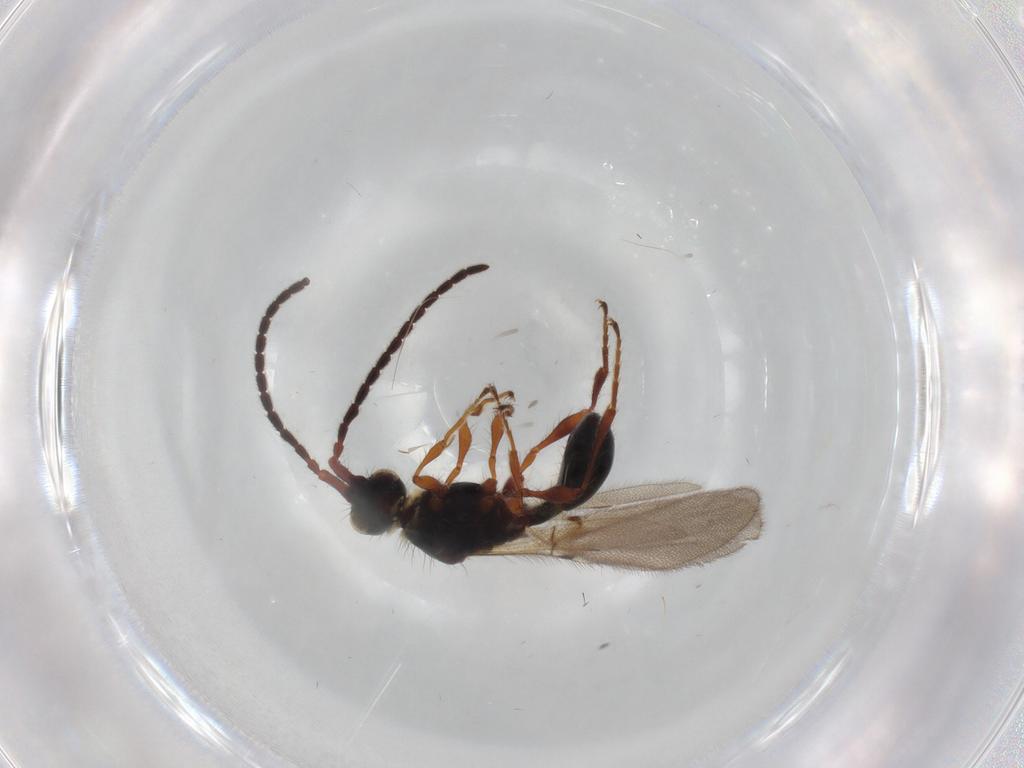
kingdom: Animalia
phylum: Arthropoda
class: Insecta
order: Hymenoptera
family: Diapriidae
